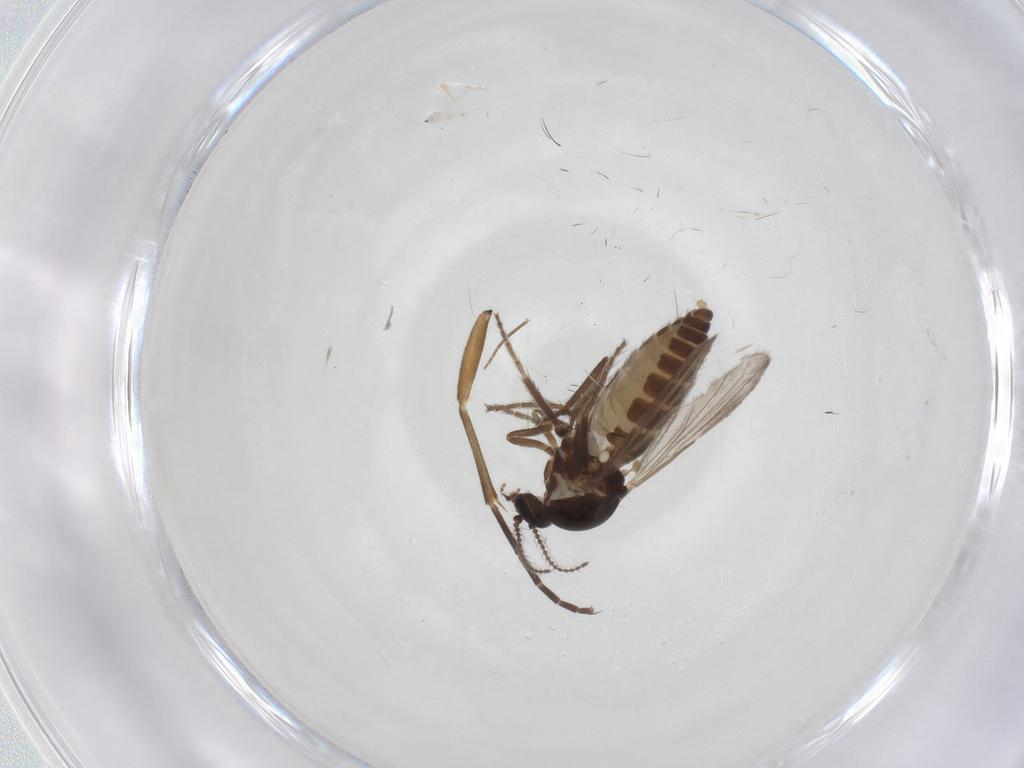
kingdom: Animalia
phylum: Arthropoda
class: Insecta
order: Diptera
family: Ceratopogonidae
